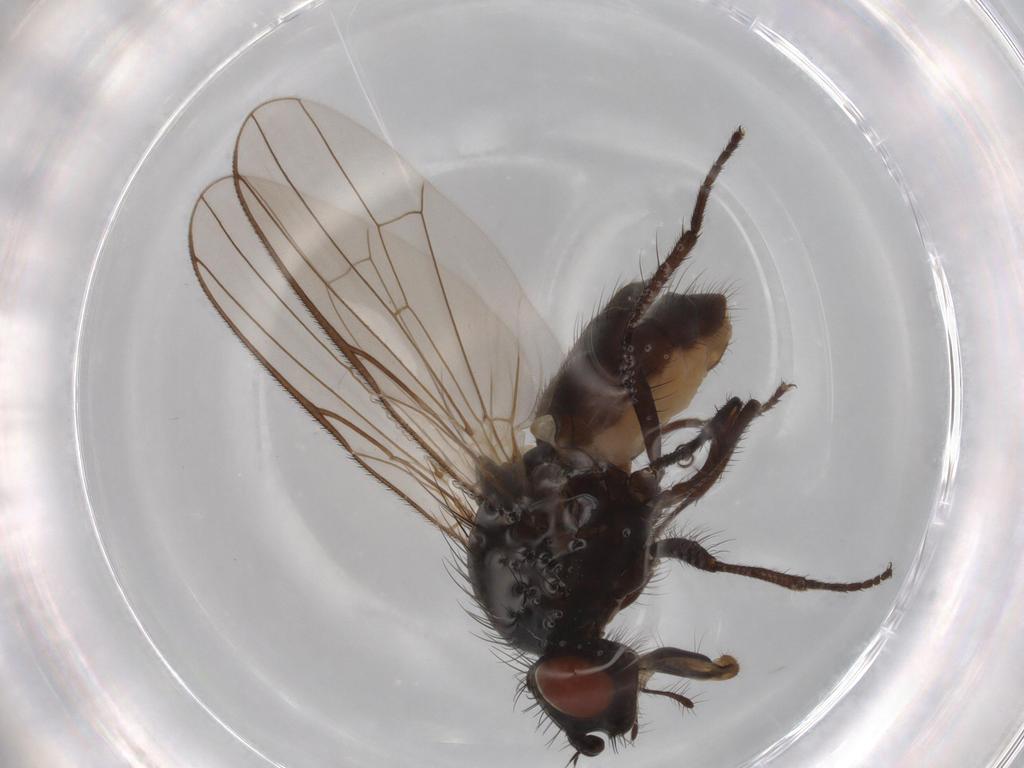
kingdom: Animalia
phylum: Arthropoda
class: Insecta
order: Diptera
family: Anthomyiidae
